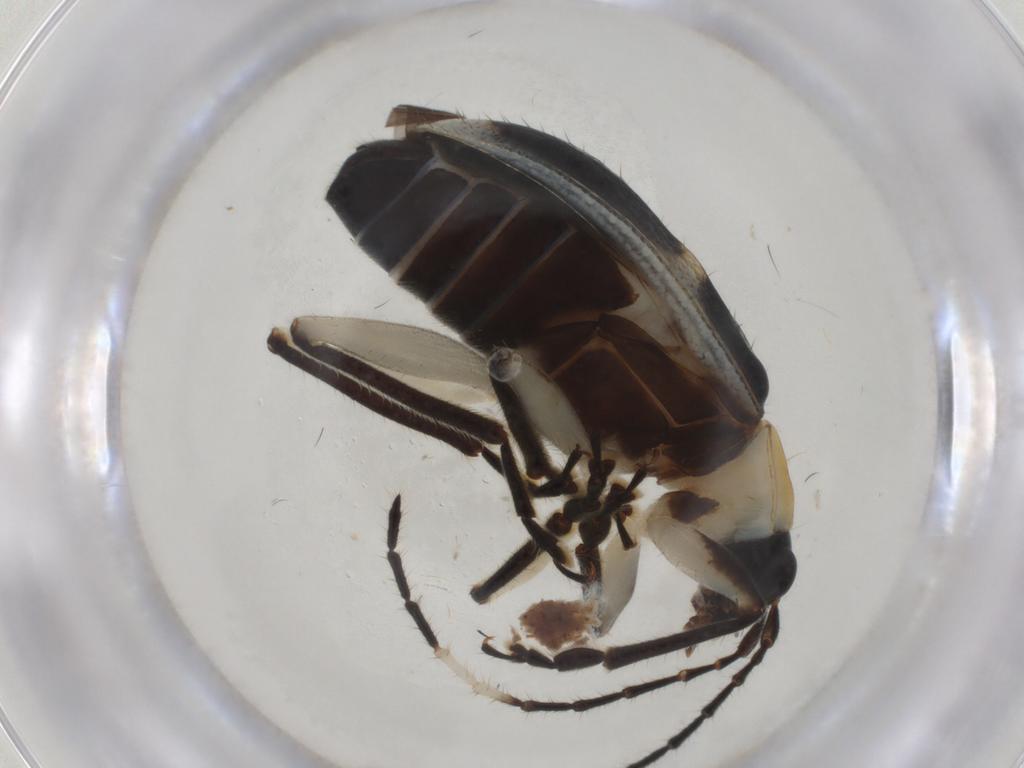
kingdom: Animalia
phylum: Arthropoda
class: Insecta
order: Coleoptera
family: Chrysomelidae
